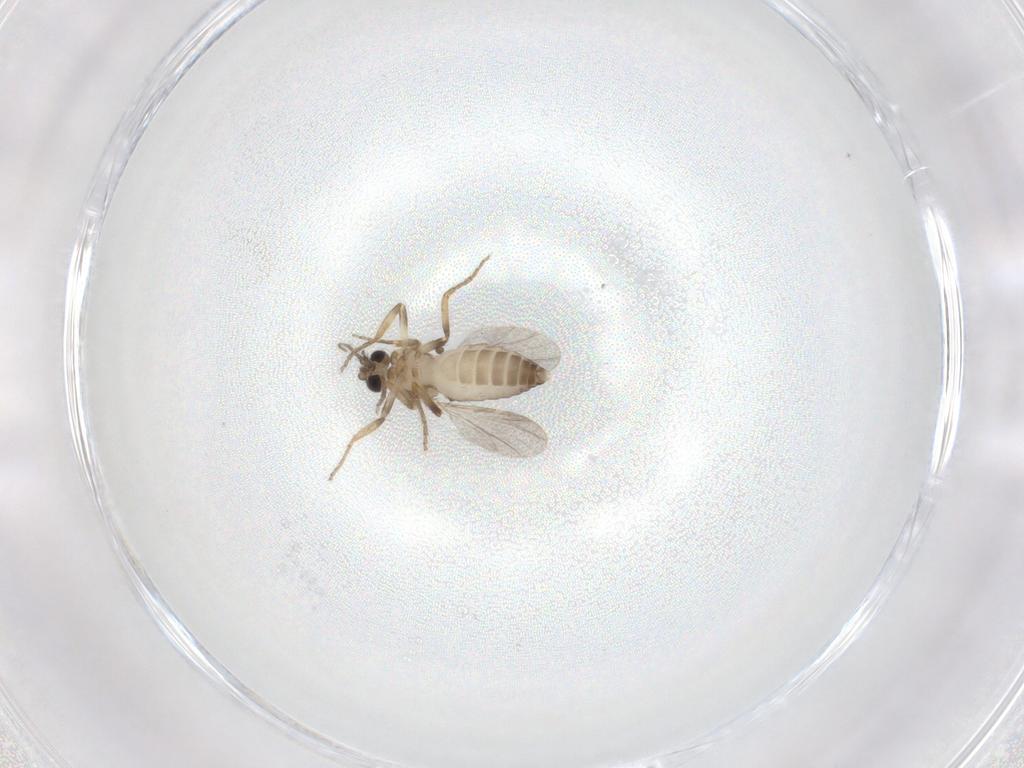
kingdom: Animalia
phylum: Arthropoda
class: Insecta
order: Diptera
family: Ceratopogonidae
